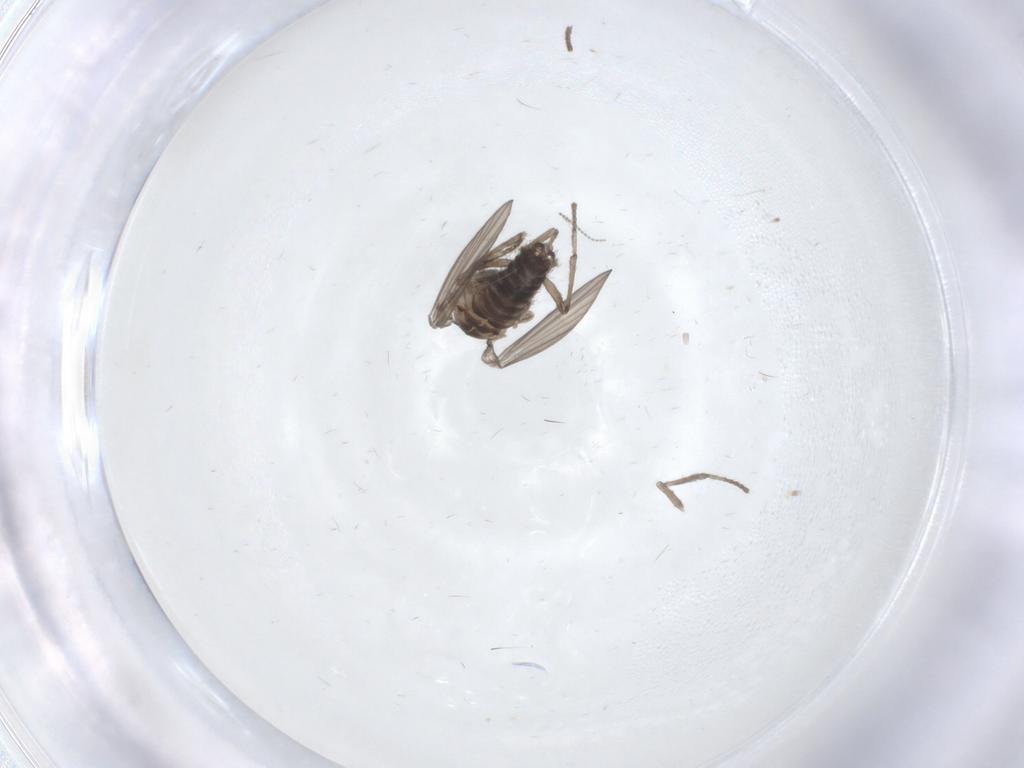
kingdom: Animalia
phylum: Arthropoda
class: Insecta
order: Diptera
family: Psychodidae
